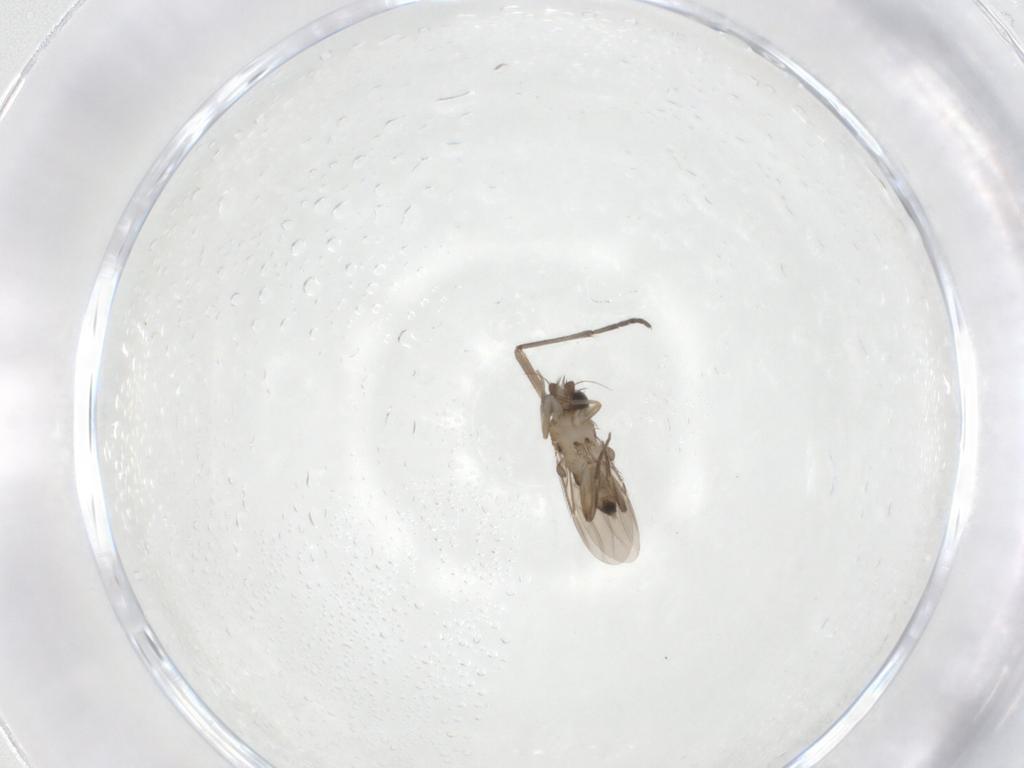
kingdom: Animalia
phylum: Arthropoda
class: Insecta
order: Diptera
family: Phoridae
